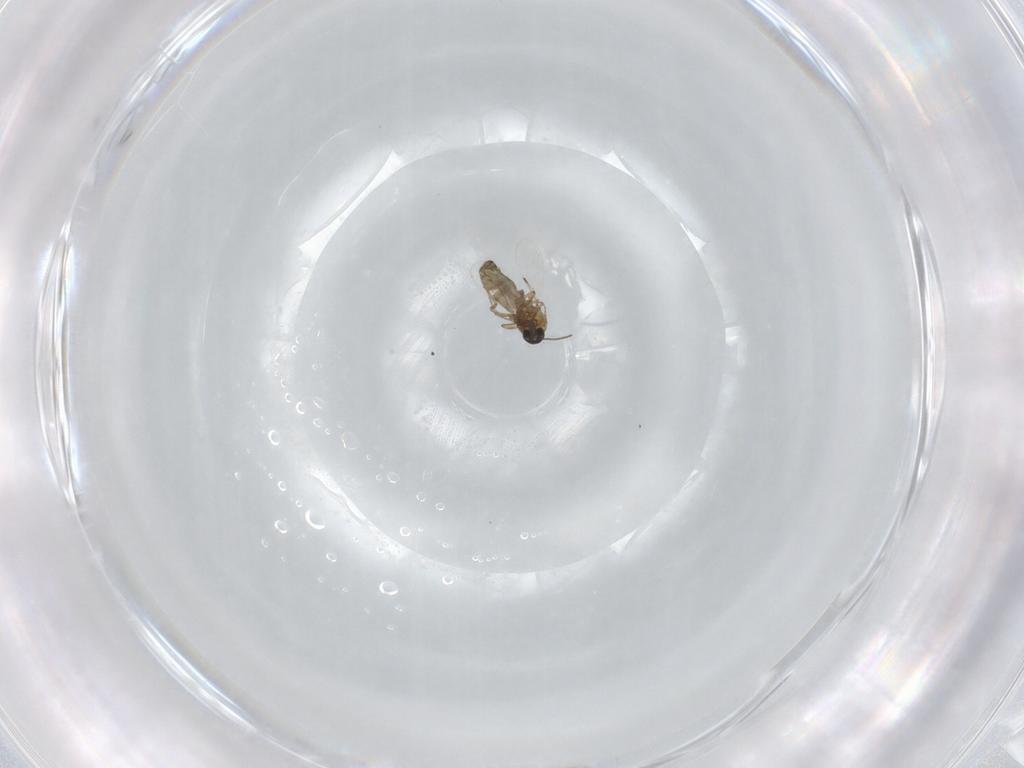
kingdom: Animalia
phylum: Arthropoda
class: Insecta
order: Diptera
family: Ceratopogonidae
